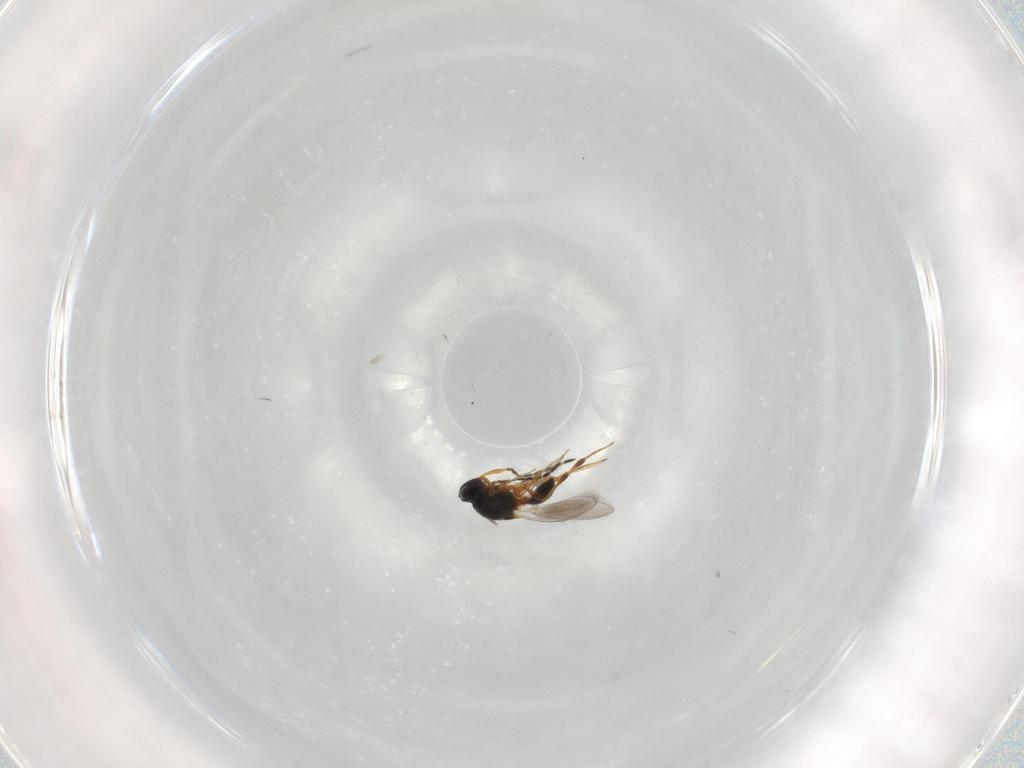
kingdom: Animalia
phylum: Arthropoda
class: Insecta
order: Hymenoptera
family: Platygastridae
